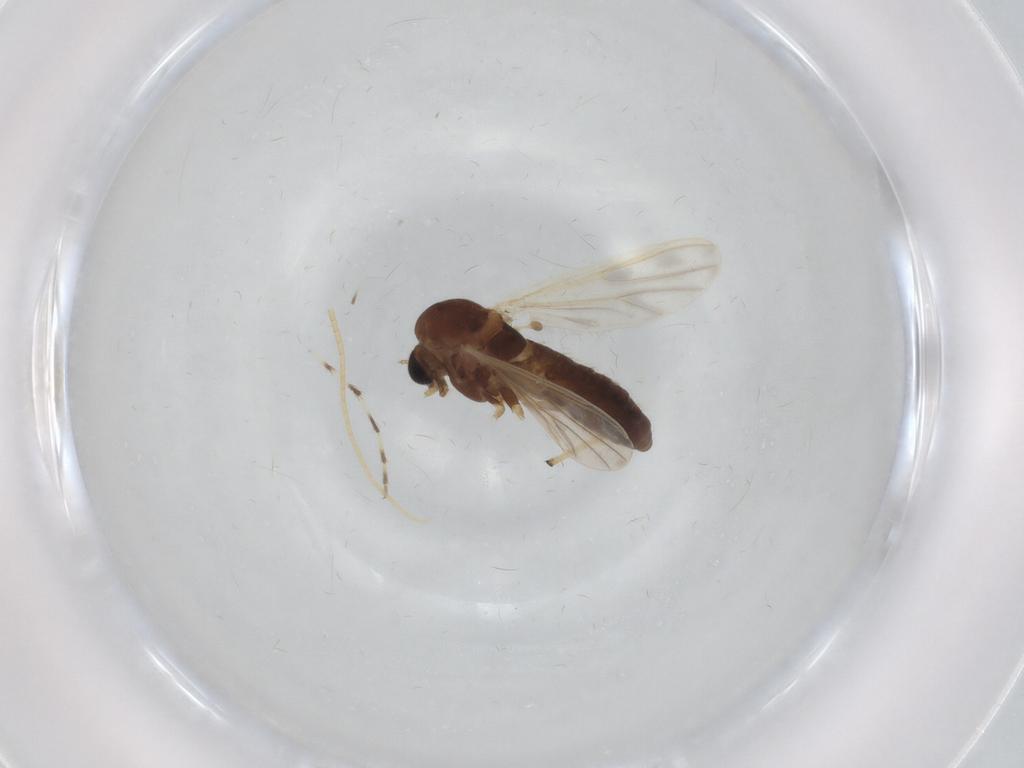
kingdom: Animalia
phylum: Arthropoda
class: Insecta
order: Diptera
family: Chironomidae
